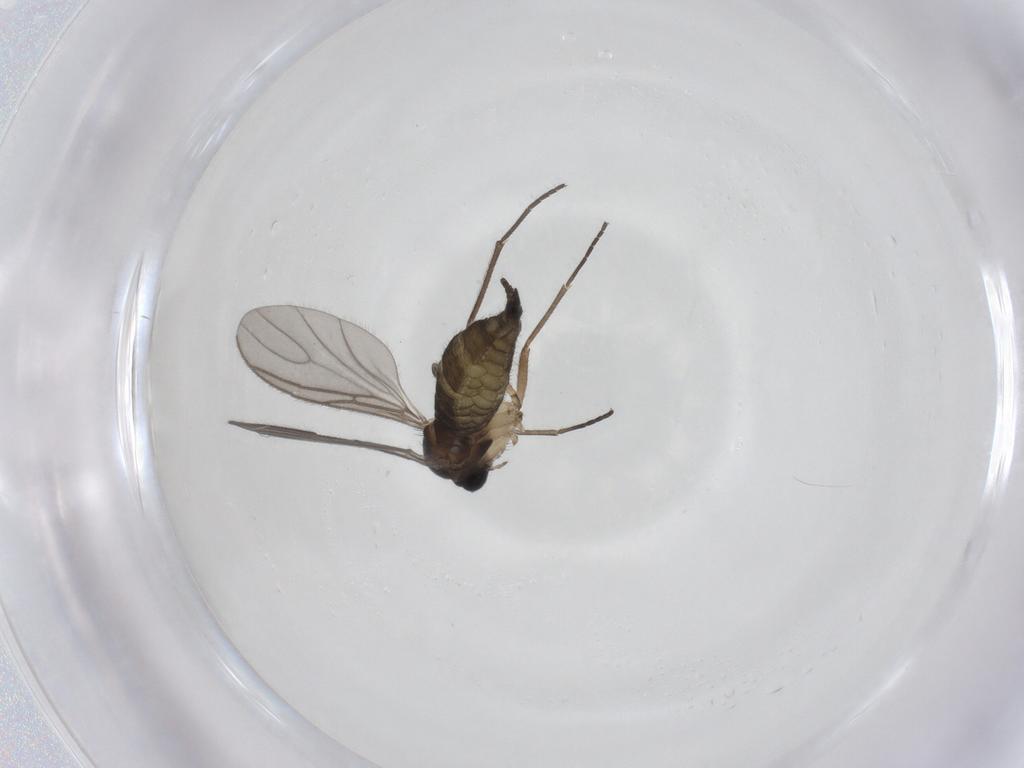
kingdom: Animalia
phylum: Arthropoda
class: Insecta
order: Diptera
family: Sciaridae
